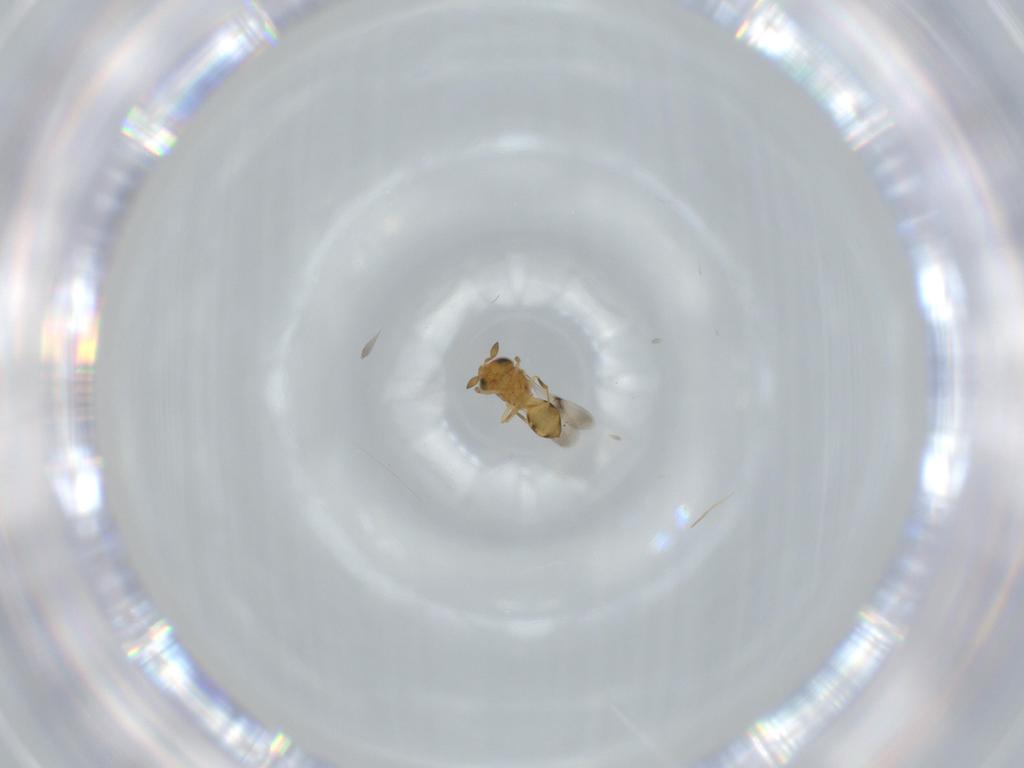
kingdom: Animalia
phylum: Arthropoda
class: Insecta
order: Hymenoptera
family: Scelionidae
